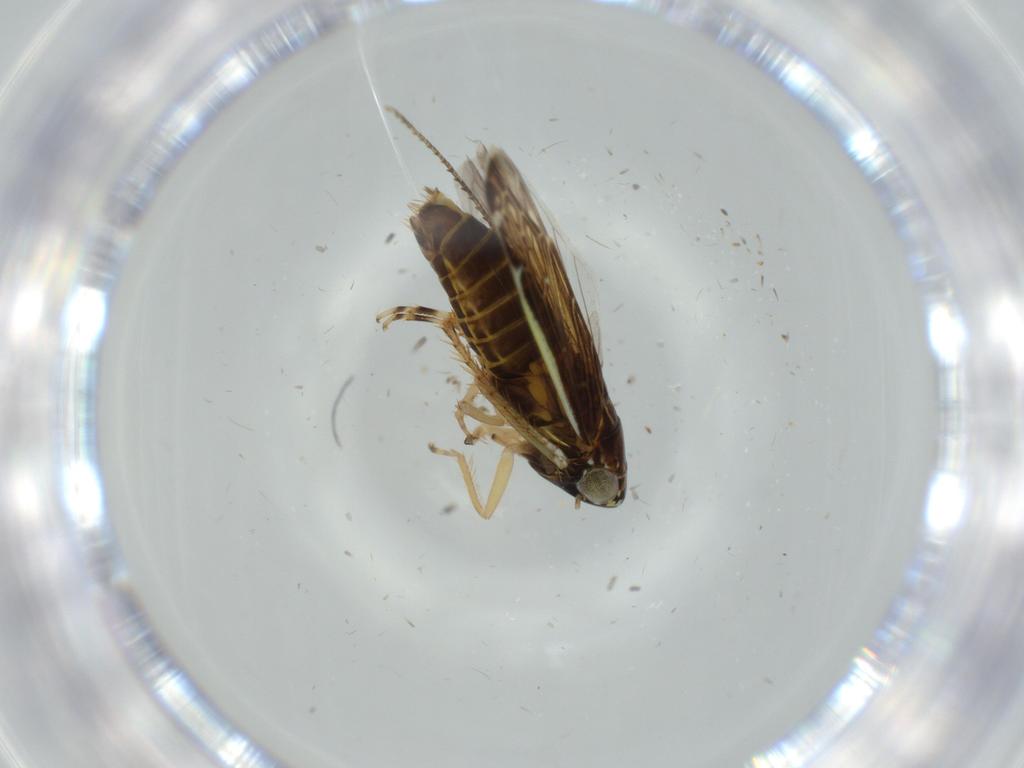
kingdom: Animalia
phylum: Arthropoda
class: Insecta
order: Hemiptera
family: Cicadellidae
